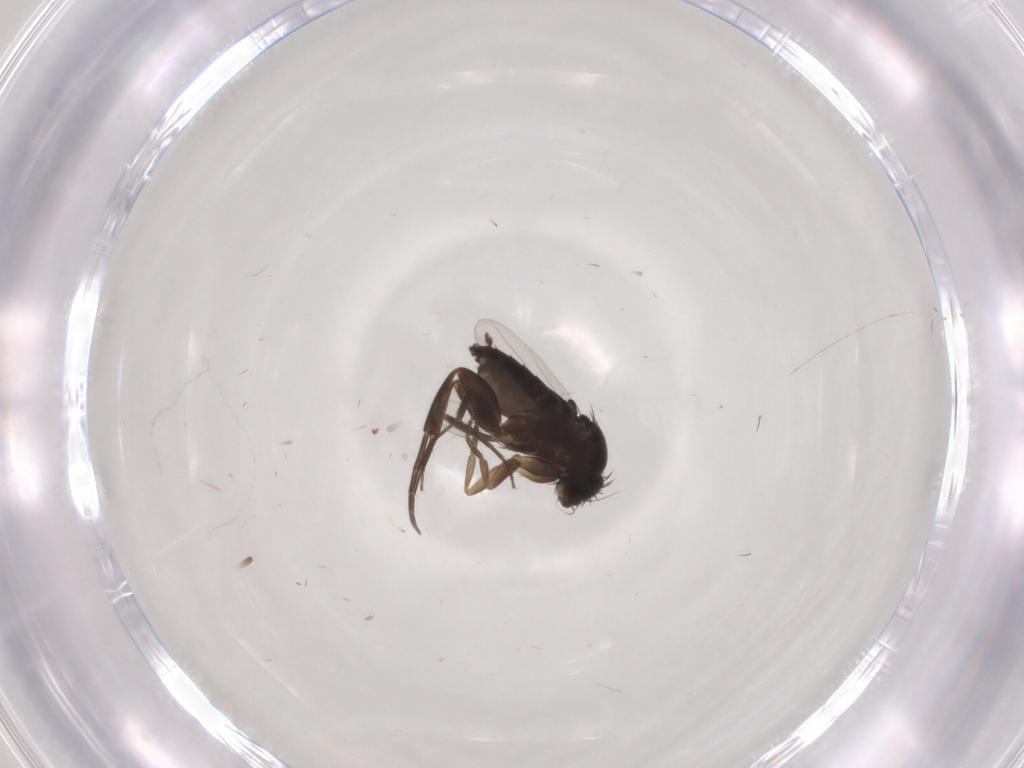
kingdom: Animalia
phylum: Arthropoda
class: Insecta
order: Diptera
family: Phoridae
